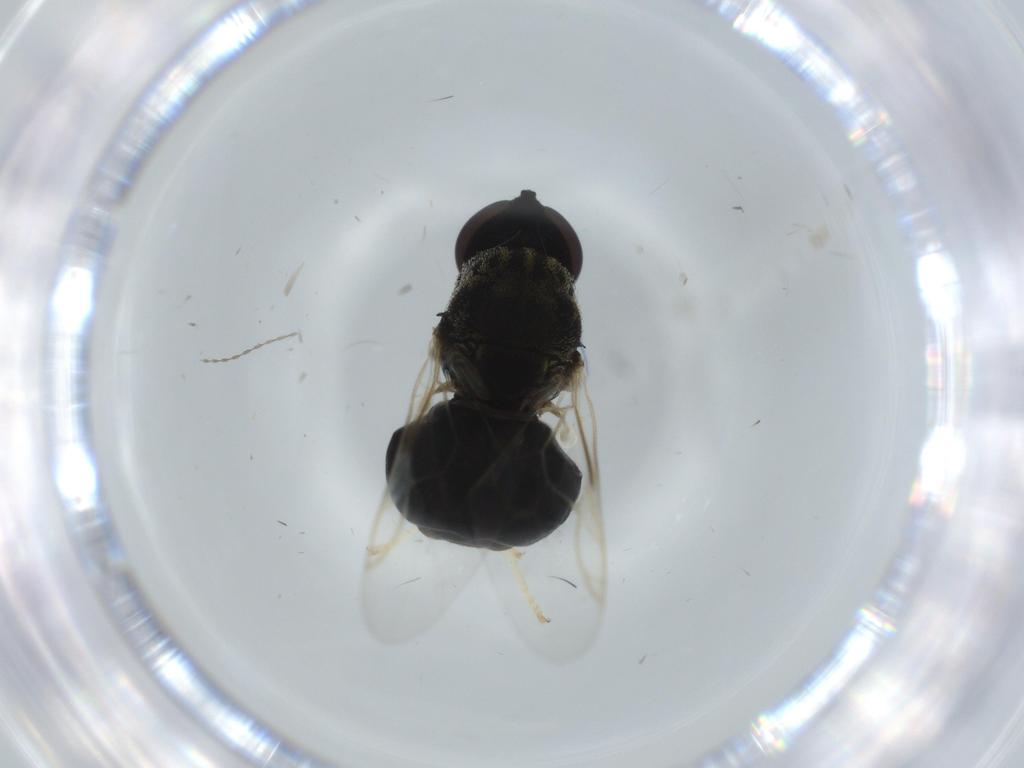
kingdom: Animalia
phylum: Arthropoda
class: Insecta
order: Diptera
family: Stratiomyidae
